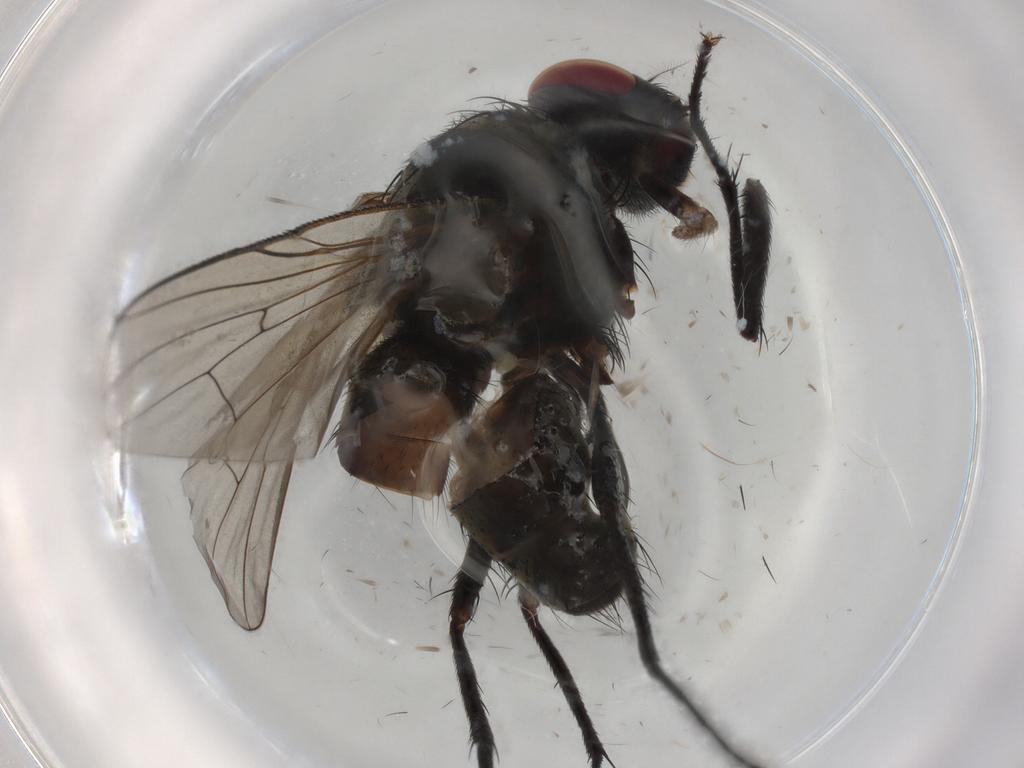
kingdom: Animalia
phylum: Arthropoda
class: Insecta
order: Diptera
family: Muscidae
